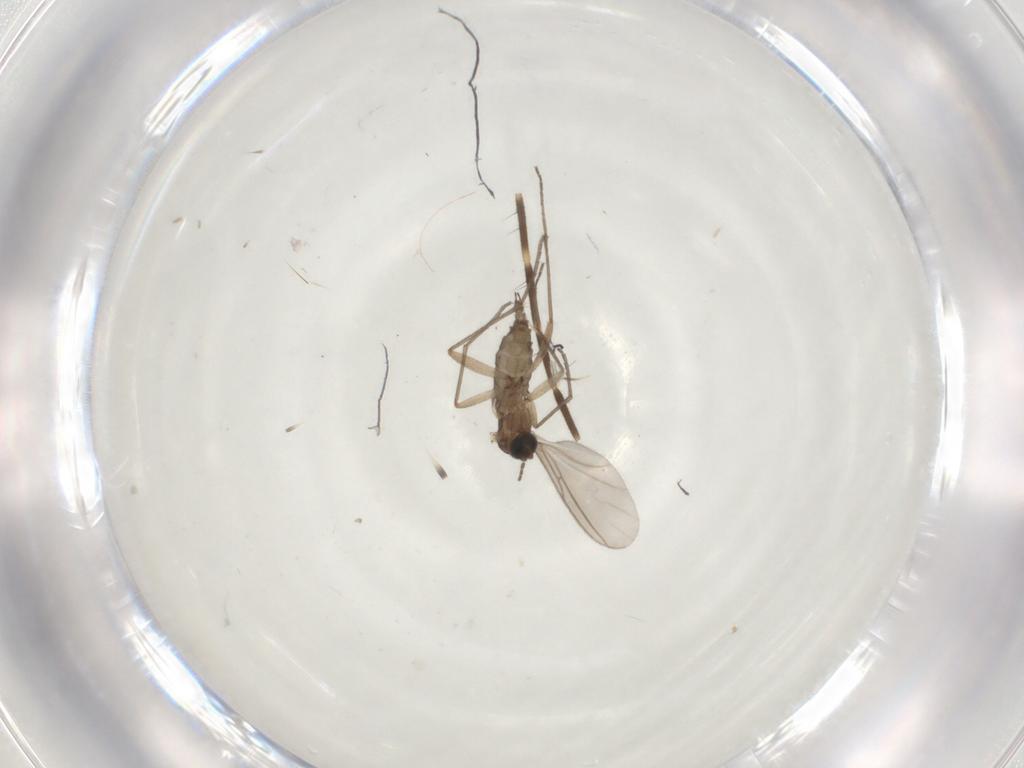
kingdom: Animalia
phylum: Arthropoda
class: Insecta
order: Diptera
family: Sciaridae
